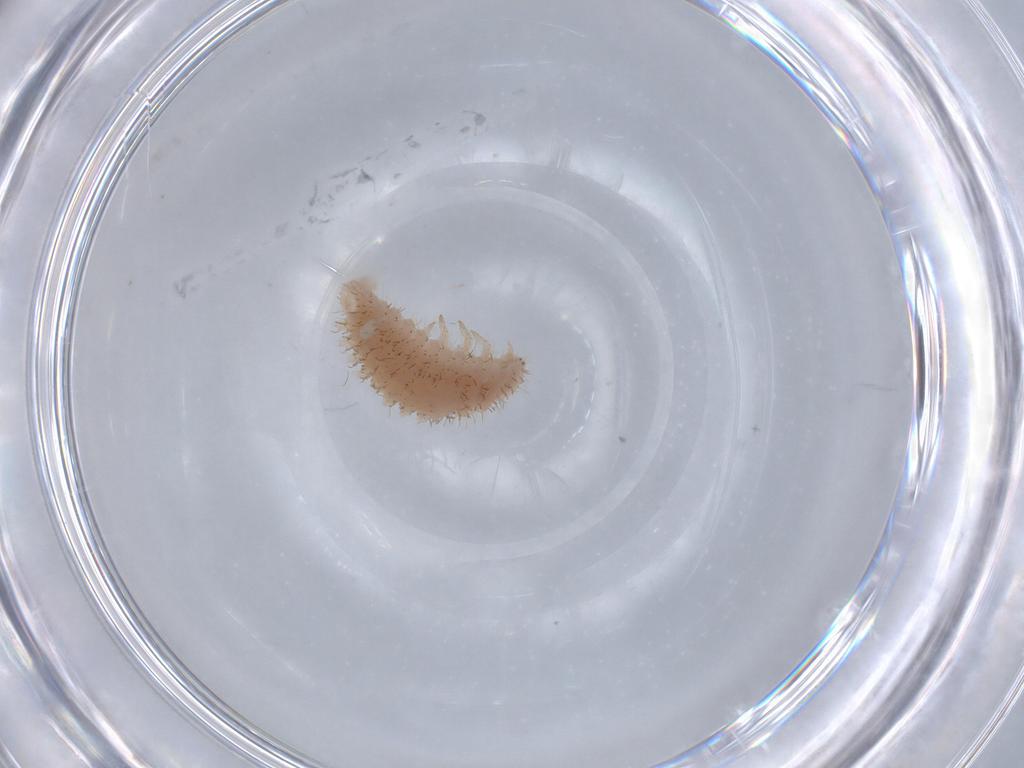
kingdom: Animalia
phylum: Arthropoda
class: Insecta
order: Coleoptera
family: Coccinellidae
